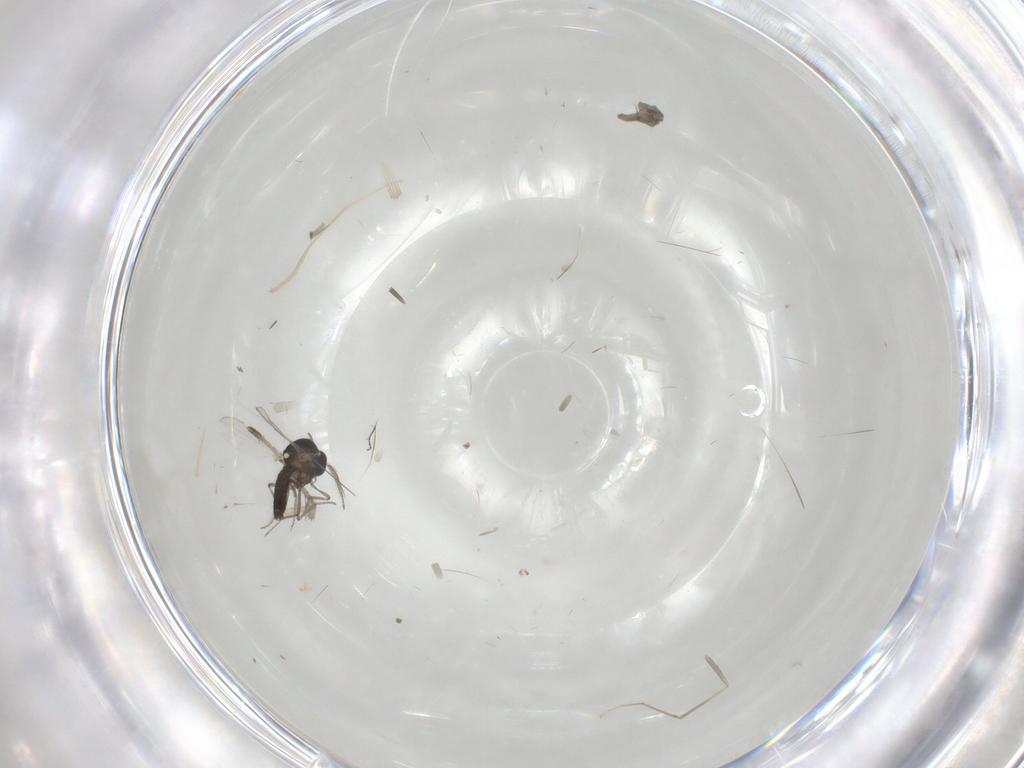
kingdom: Animalia
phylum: Arthropoda
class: Insecta
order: Diptera
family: Ceratopogonidae
